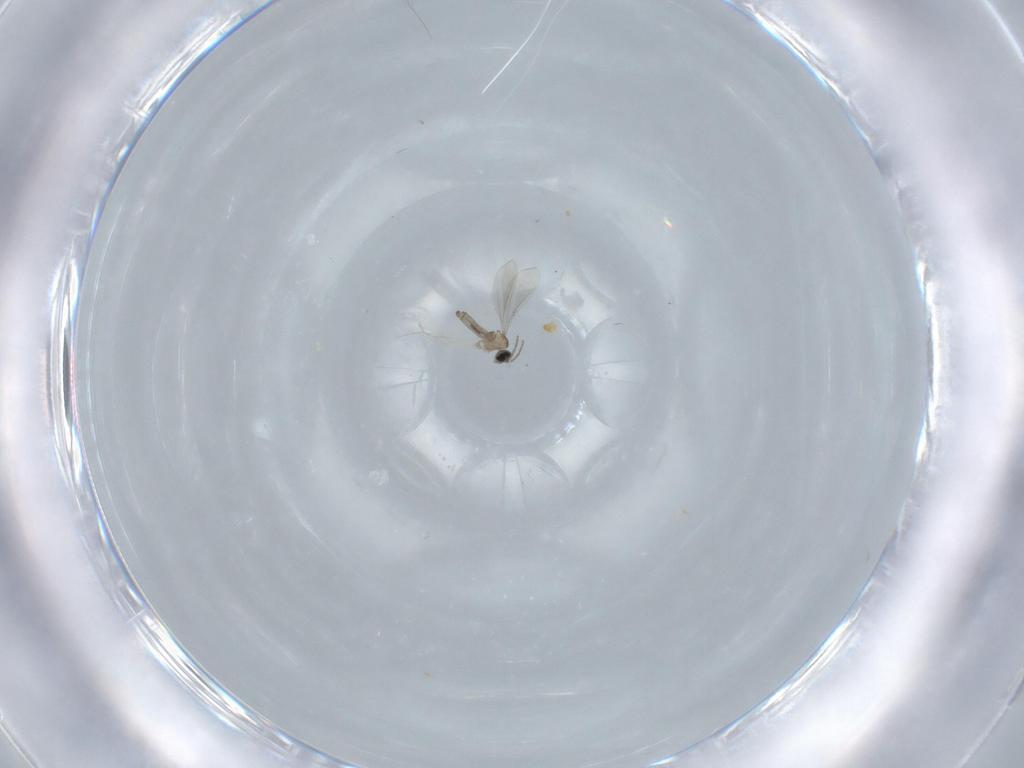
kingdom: Animalia
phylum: Arthropoda
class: Insecta
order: Diptera
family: Cecidomyiidae
